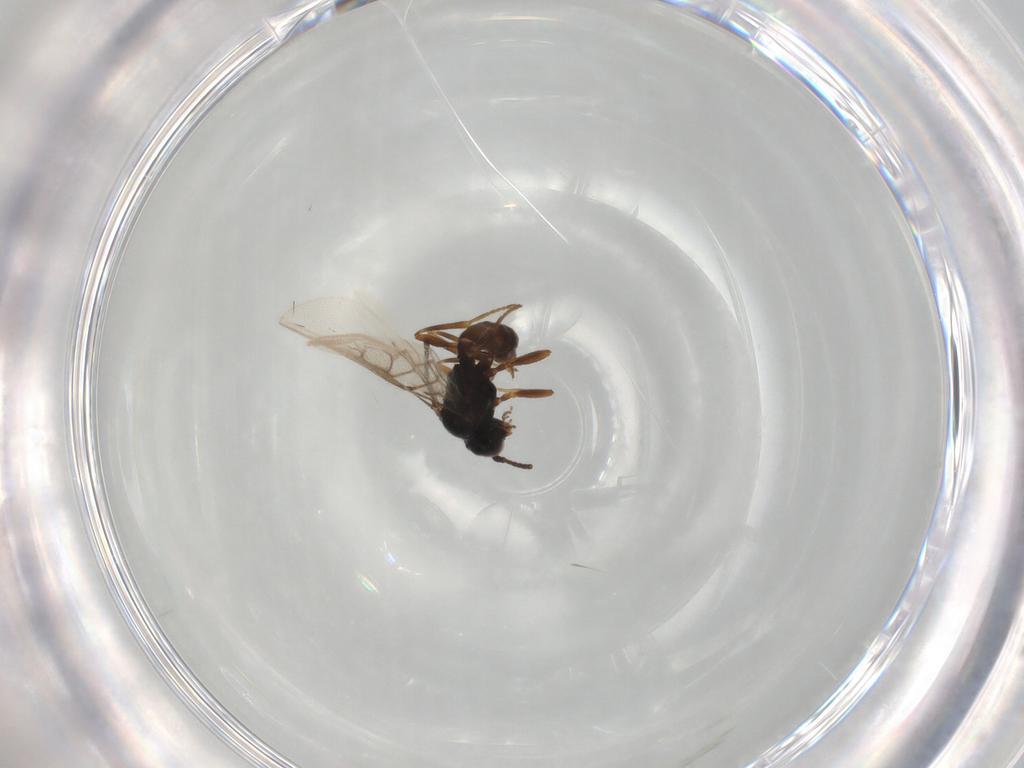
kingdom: Animalia
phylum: Arthropoda
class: Insecta
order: Hymenoptera
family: Braconidae
